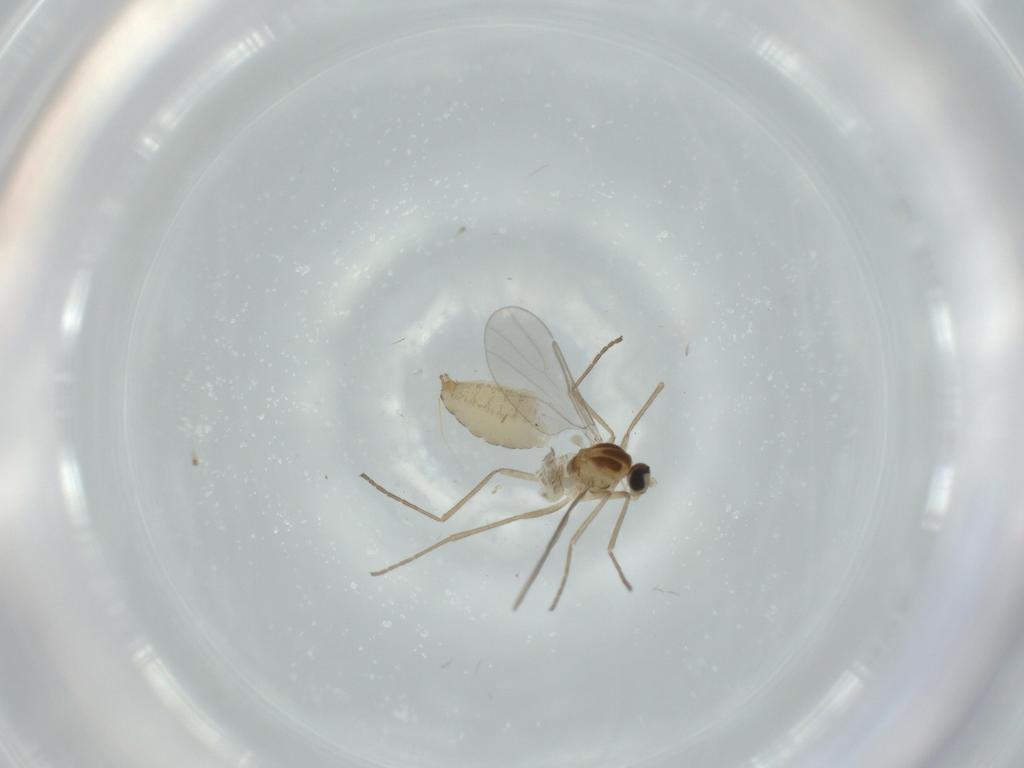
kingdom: Animalia
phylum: Arthropoda
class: Insecta
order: Diptera
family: Cecidomyiidae
